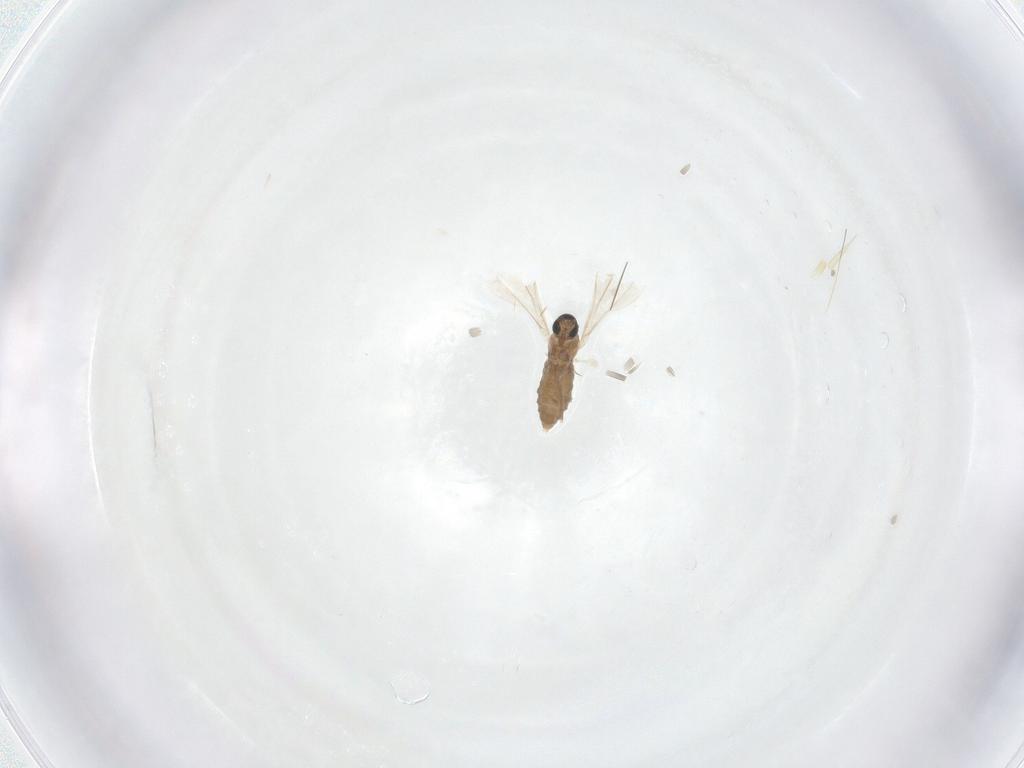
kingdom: Animalia
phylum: Arthropoda
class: Insecta
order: Diptera
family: Cecidomyiidae
